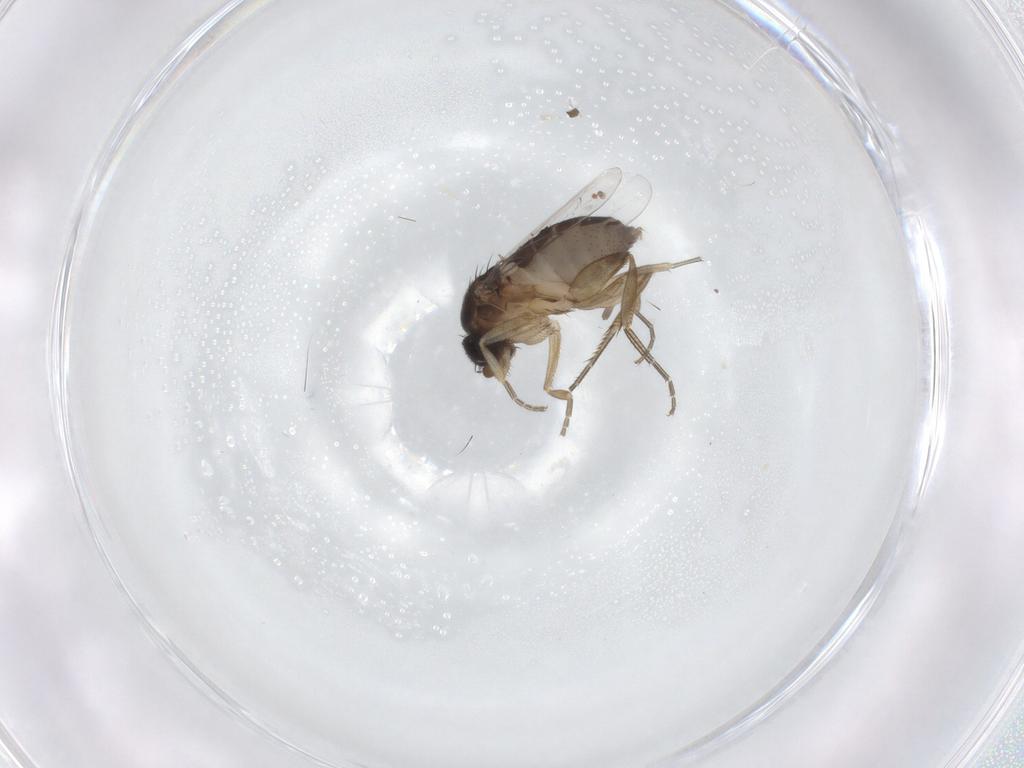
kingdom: Animalia
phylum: Arthropoda
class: Insecta
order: Diptera
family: Phoridae
